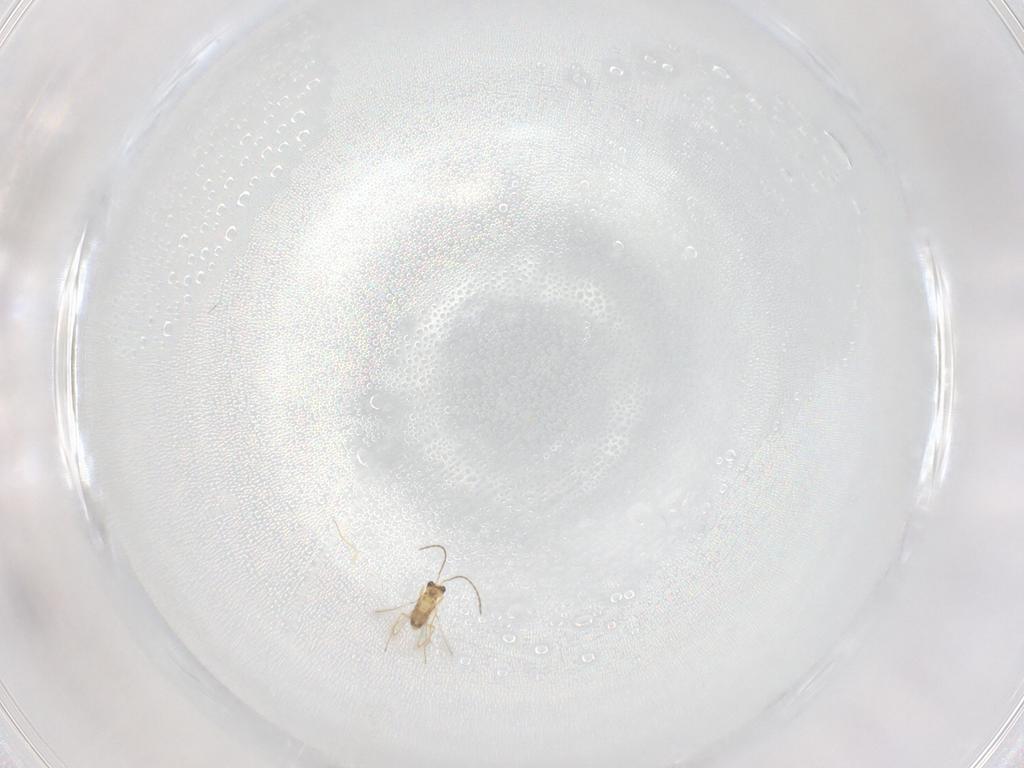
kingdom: Animalia
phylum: Arthropoda
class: Insecta
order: Hymenoptera
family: Mymaridae
